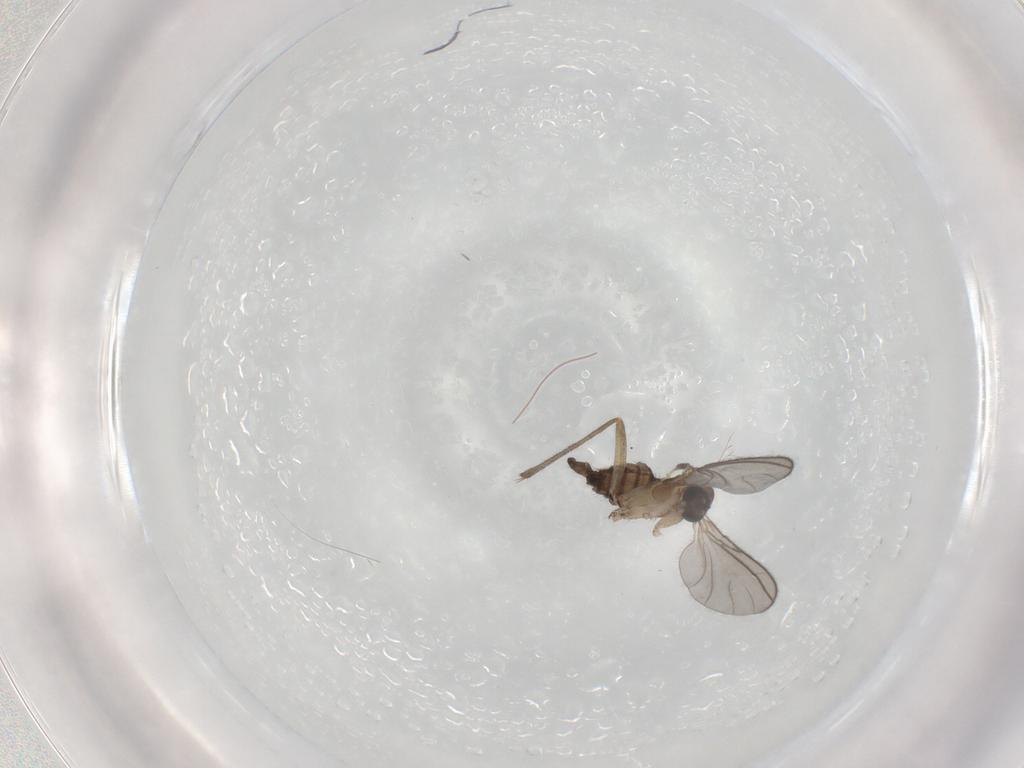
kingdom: Animalia
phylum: Arthropoda
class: Insecta
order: Diptera
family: Sciaridae
